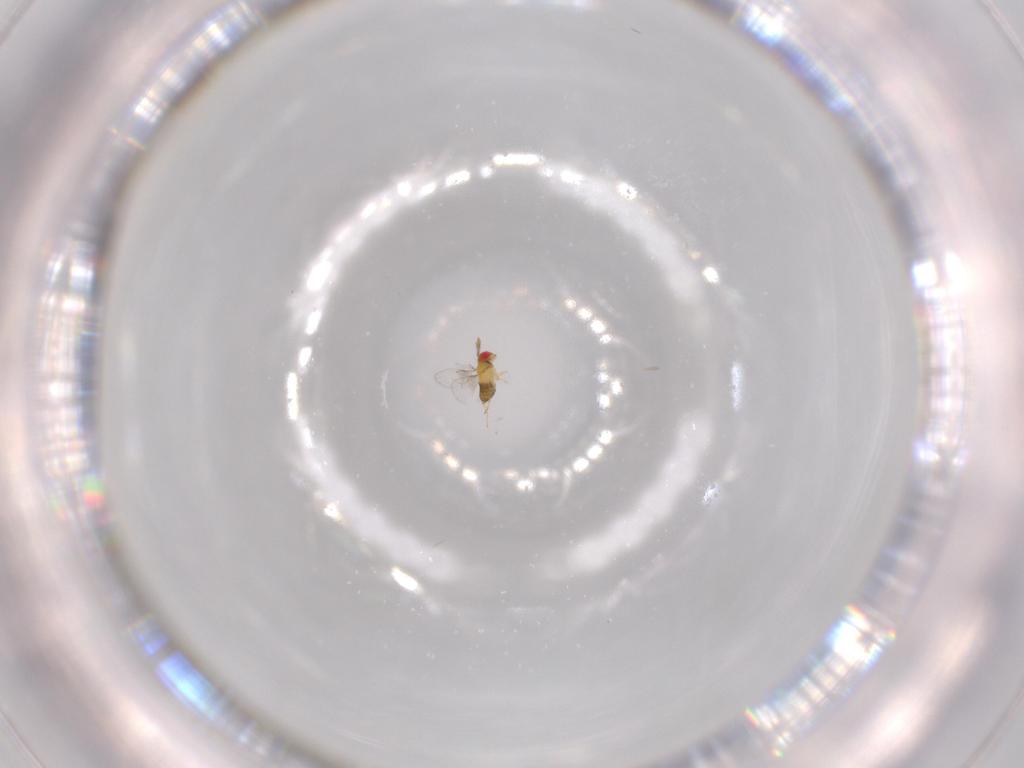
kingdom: Animalia
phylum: Arthropoda
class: Insecta
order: Hymenoptera
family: Trichogrammatidae
